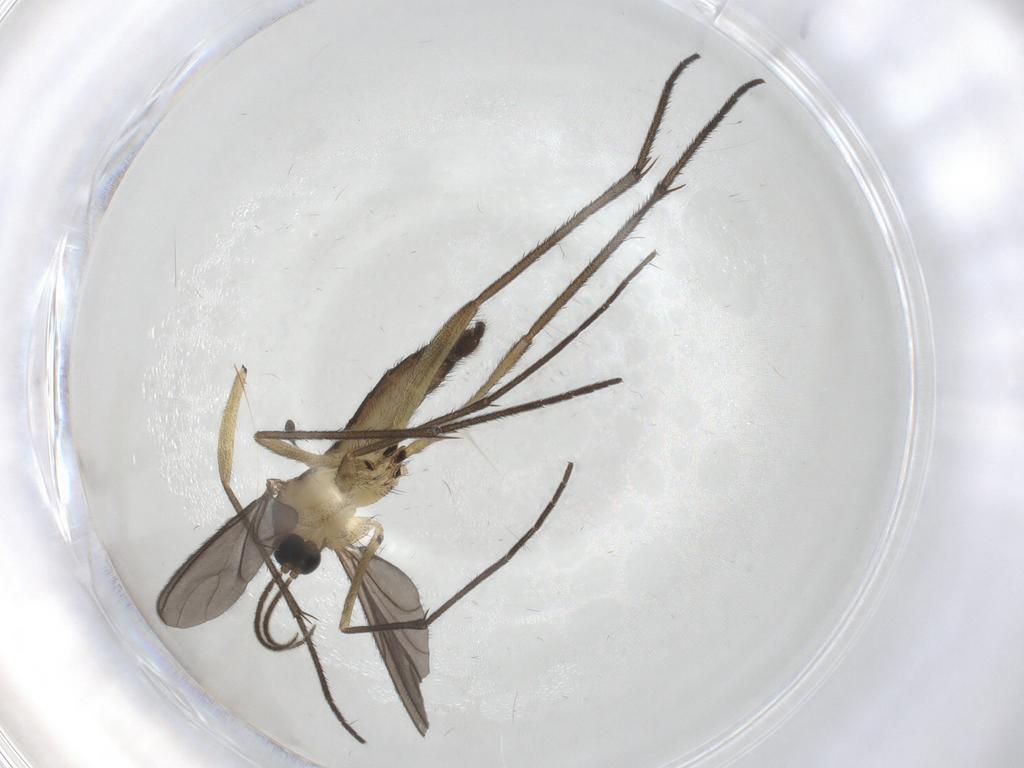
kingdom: Animalia
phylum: Arthropoda
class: Insecta
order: Diptera
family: Sciaridae
